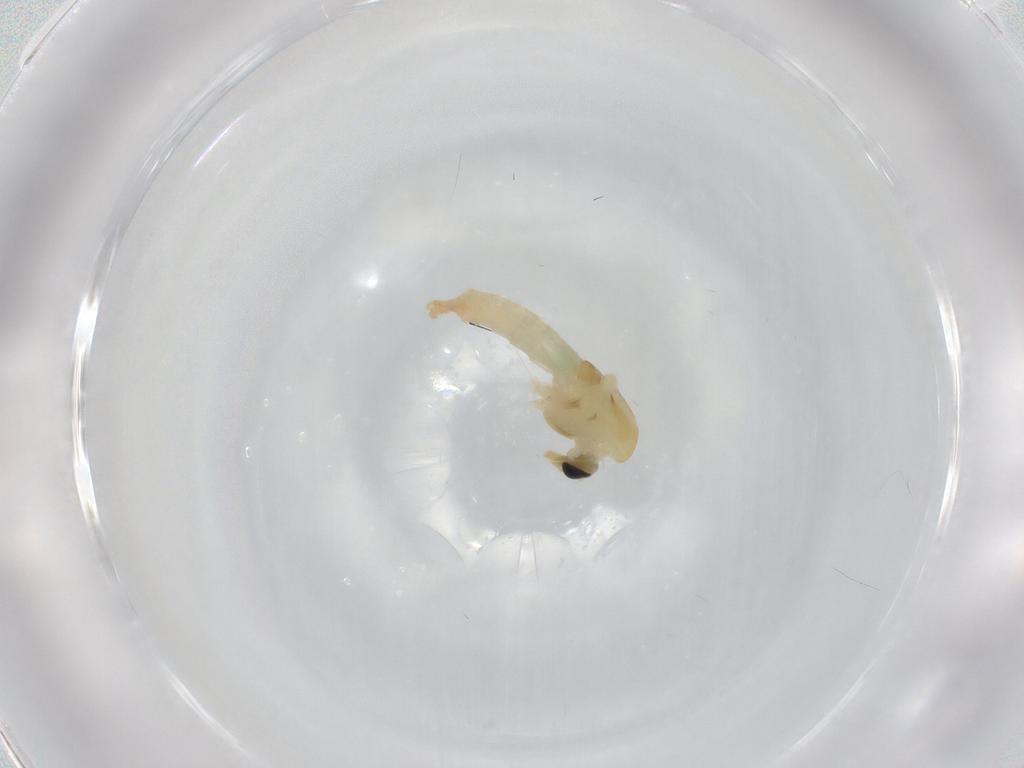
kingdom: Animalia
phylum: Arthropoda
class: Insecta
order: Diptera
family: Chironomidae
